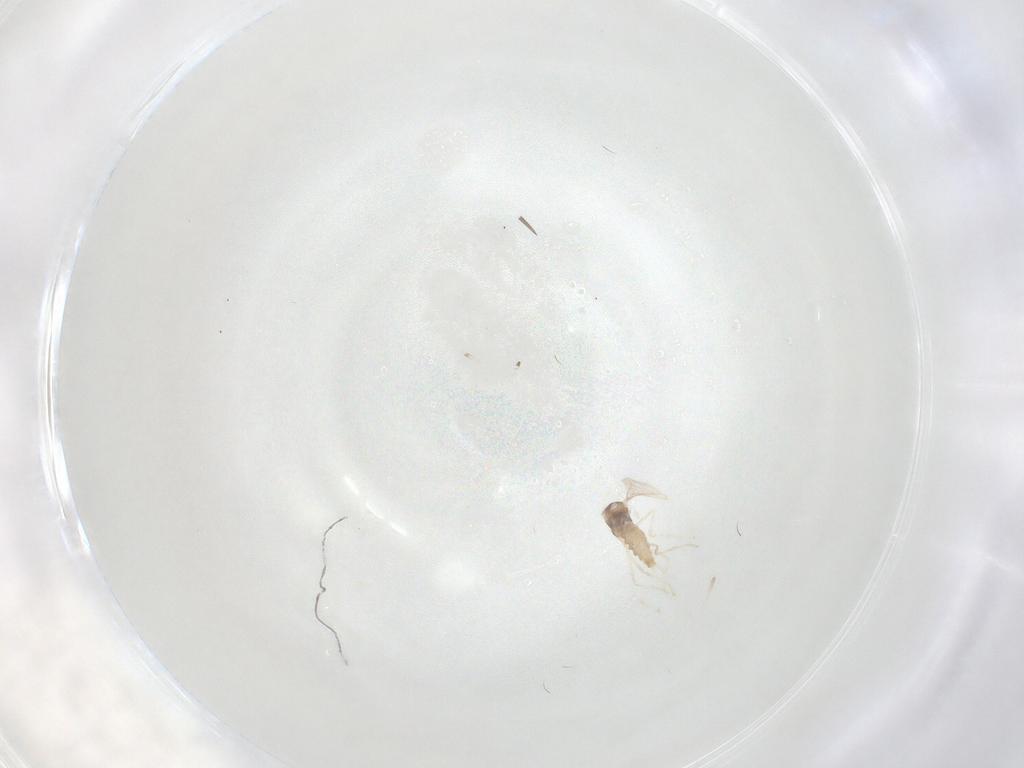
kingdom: Animalia
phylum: Arthropoda
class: Insecta
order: Diptera
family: Cecidomyiidae
